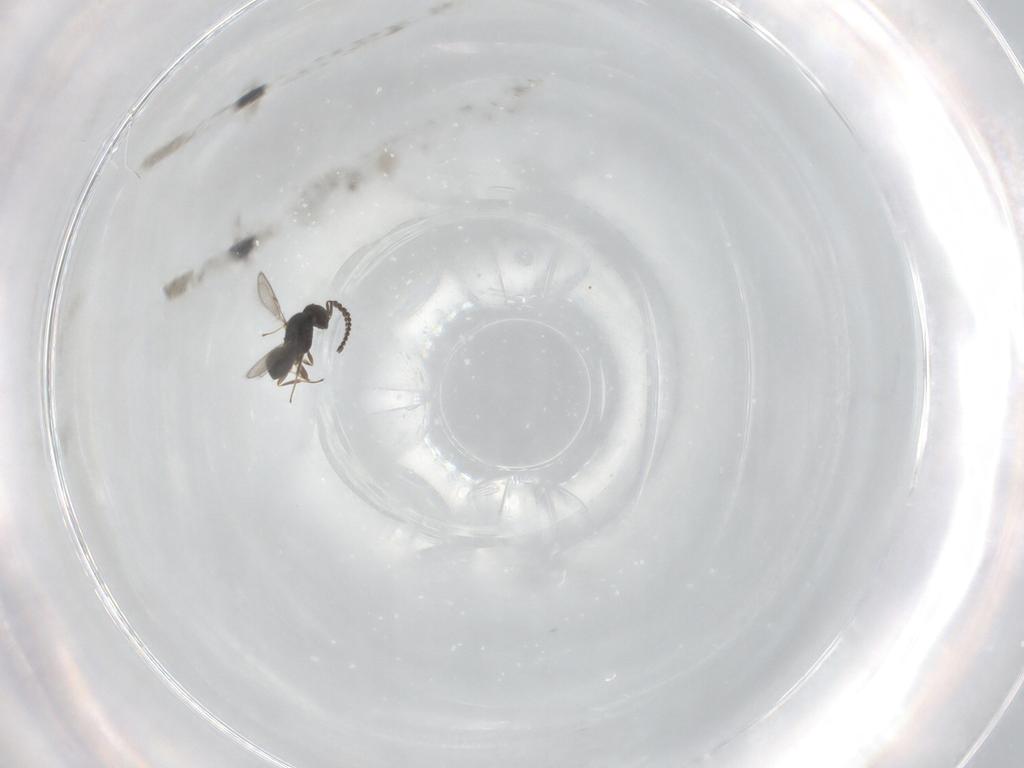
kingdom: Animalia
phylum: Arthropoda
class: Insecta
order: Hymenoptera
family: Scelionidae
